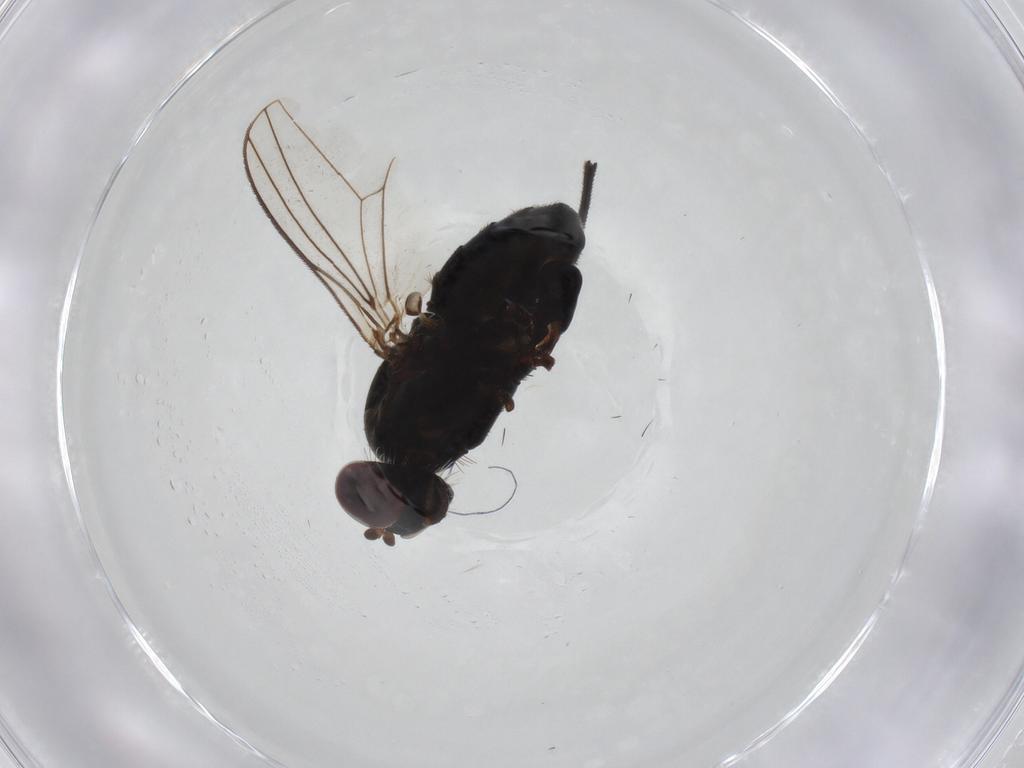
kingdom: Animalia
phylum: Arthropoda
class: Insecta
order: Diptera
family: Dolichopodidae
